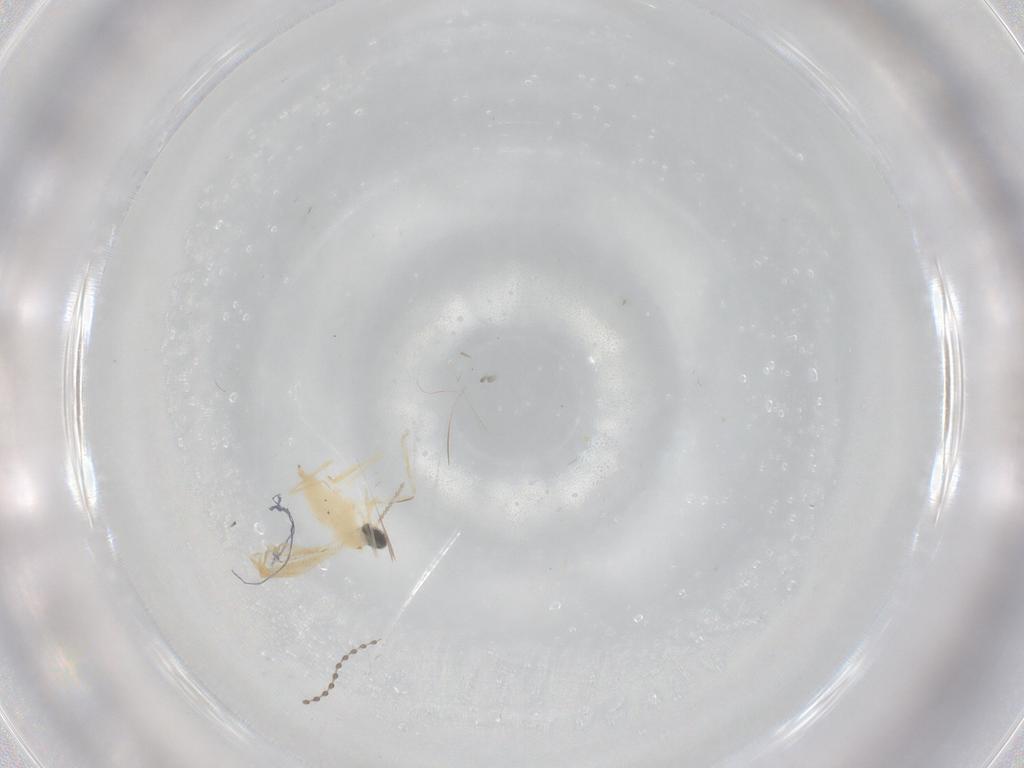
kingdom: Animalia
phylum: Arthropoda
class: Insecta
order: Diptera
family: Cecidomyiidae
